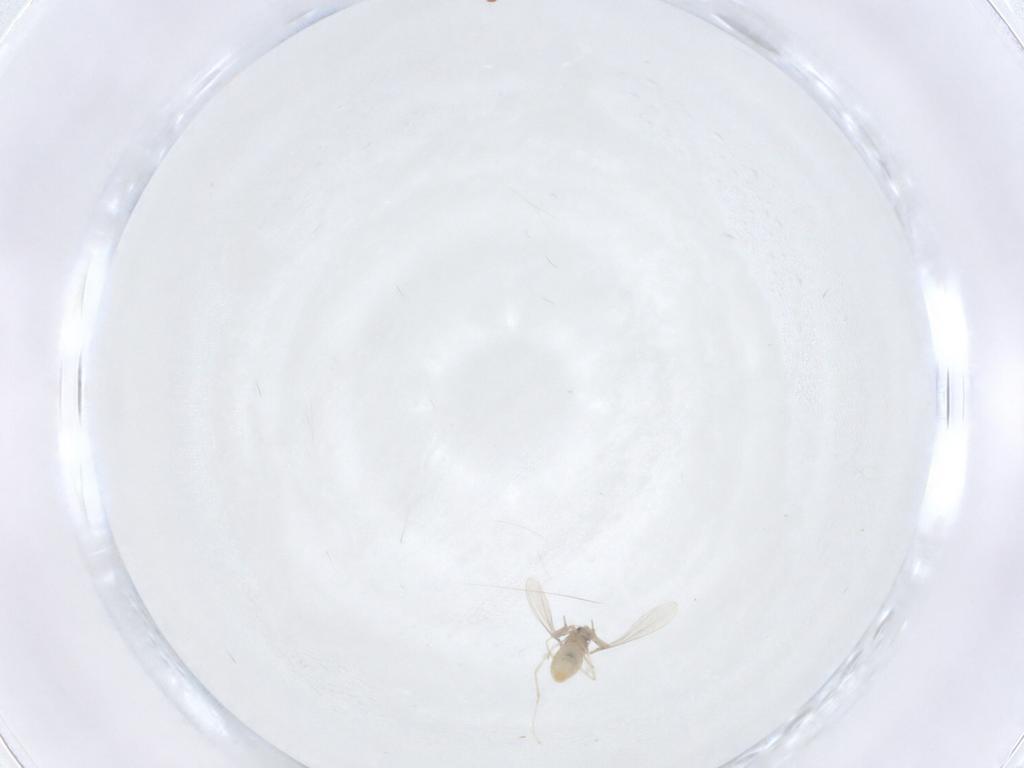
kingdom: Animalia
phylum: Arthropoda
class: Insecta
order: Diptera
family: Cecidomyiidae
